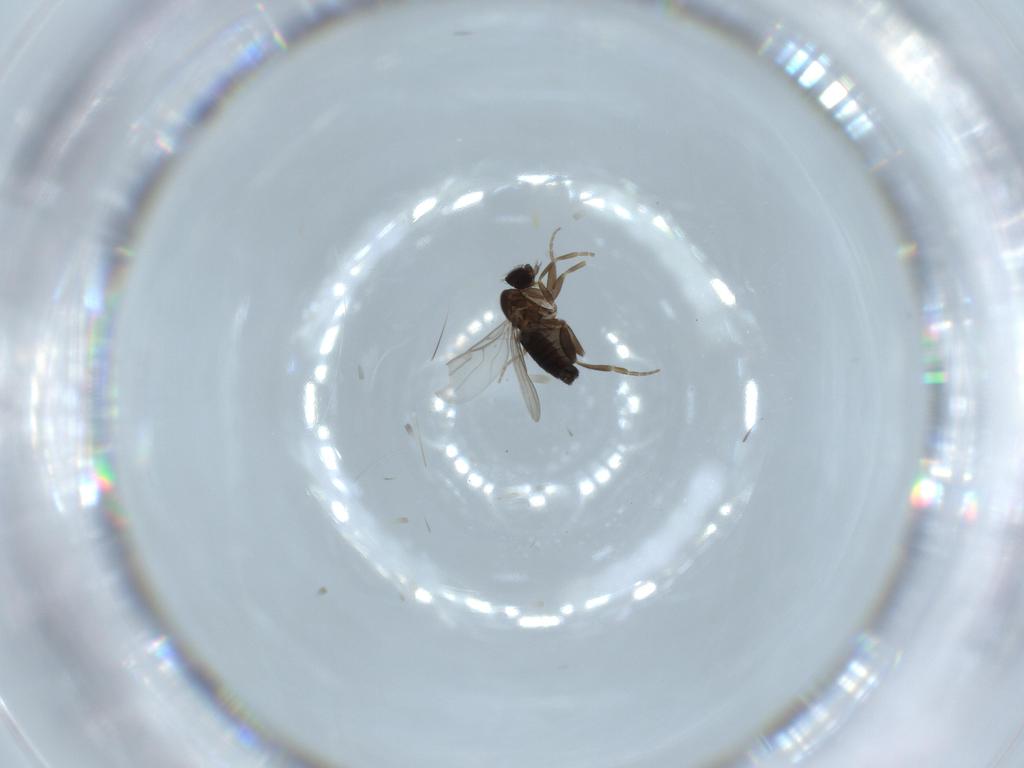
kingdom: Animalia
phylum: Arthropoda
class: Insecta
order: Diptera
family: Phoridae
